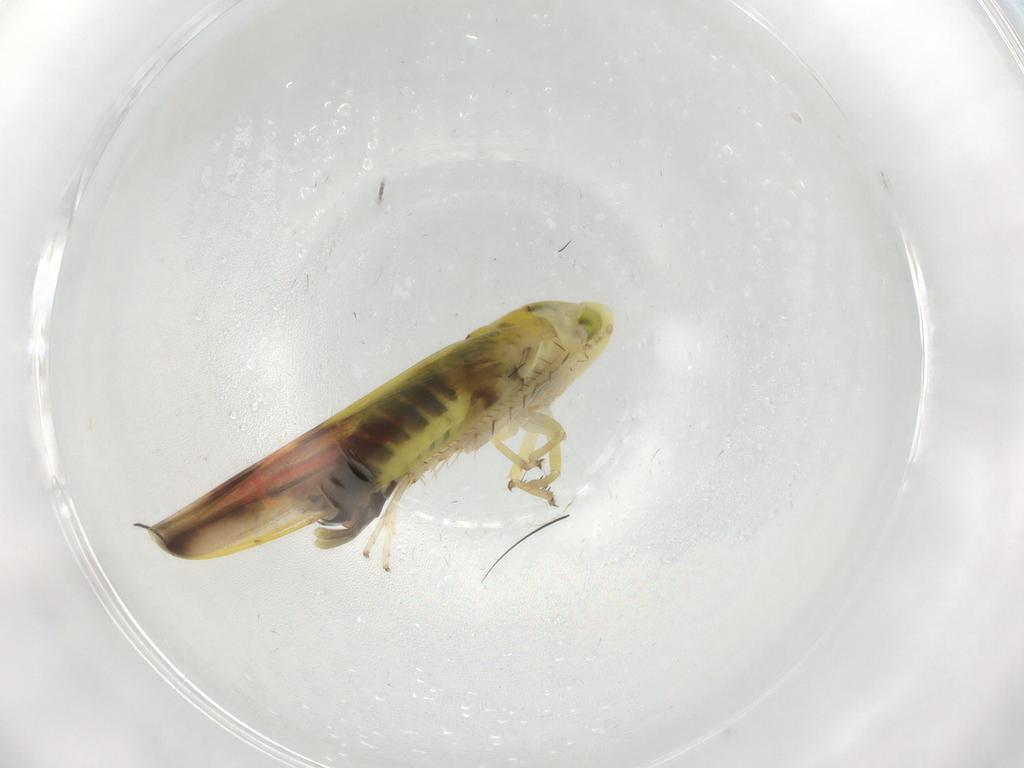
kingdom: Animalia
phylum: Arthropoda
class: Insecta
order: Hemiptera
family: Cicadellidae
